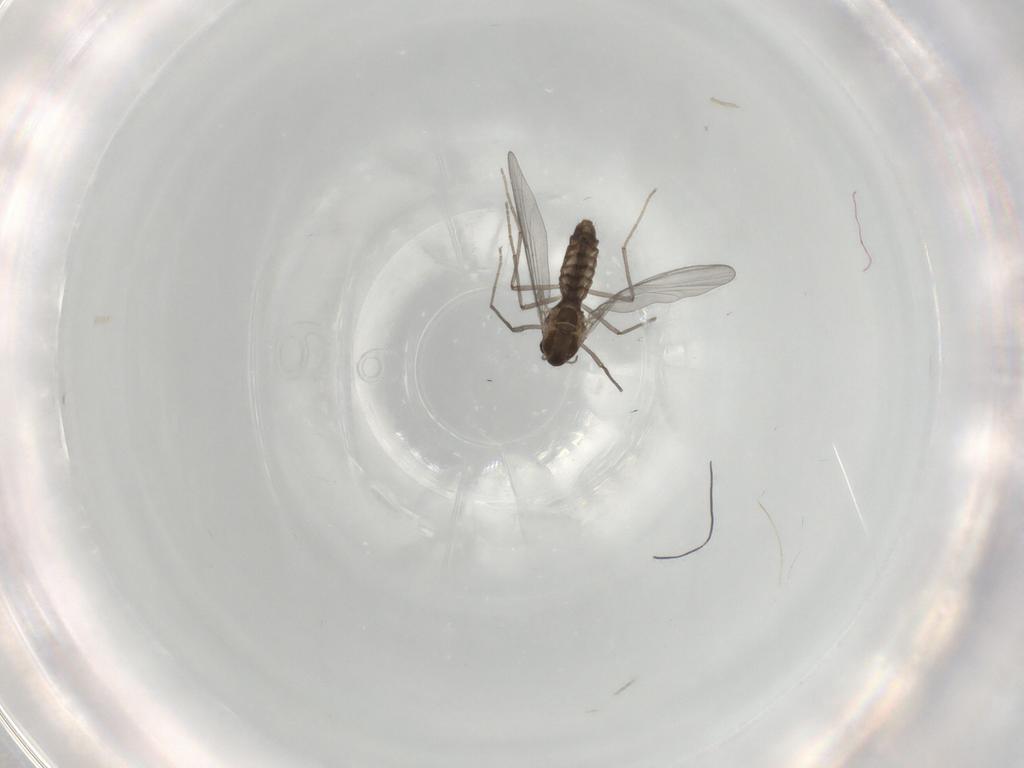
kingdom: Animalia
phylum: Arthropoda
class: Insecta
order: Diptera
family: Chironomidae
